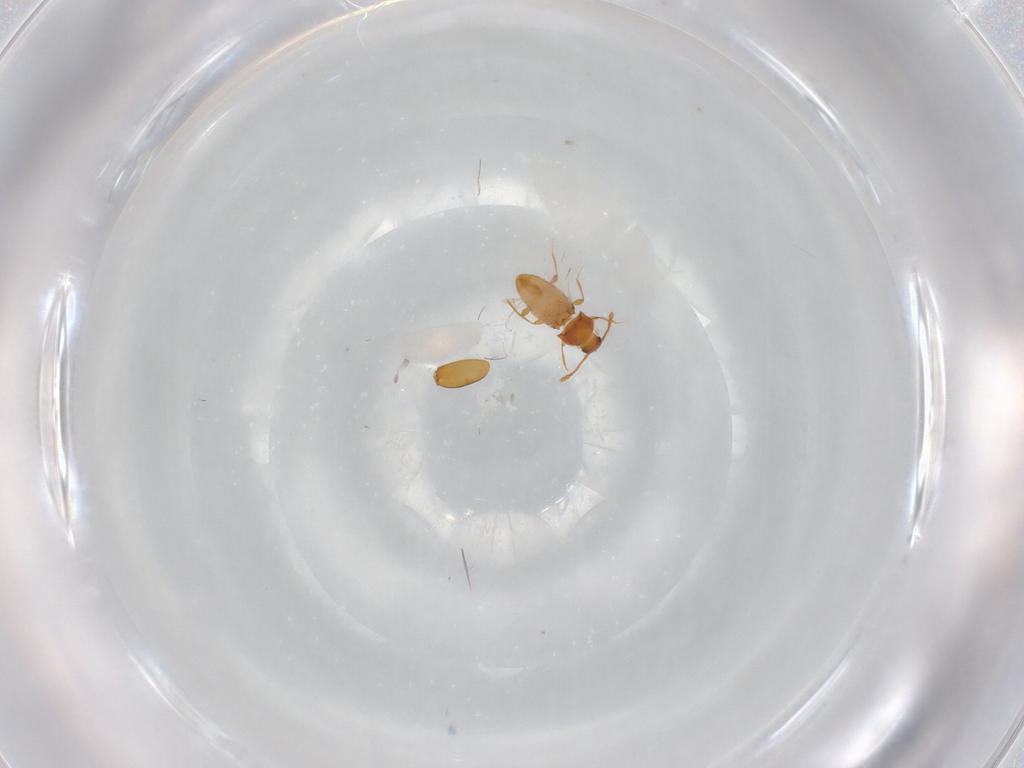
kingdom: Animalia
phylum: Arthropoda
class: Insecta
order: Coleoptera
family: Staphylinidae
